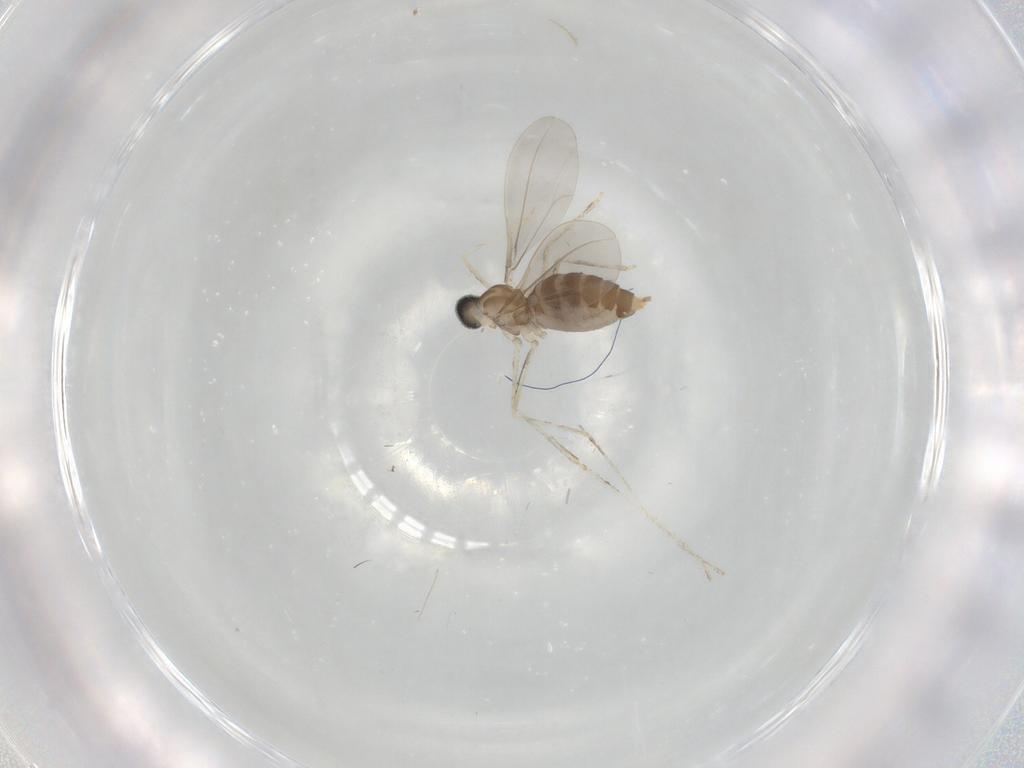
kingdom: Animalia
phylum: Arthropoda
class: Insecta
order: Diptera
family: Cecidomyiidae
